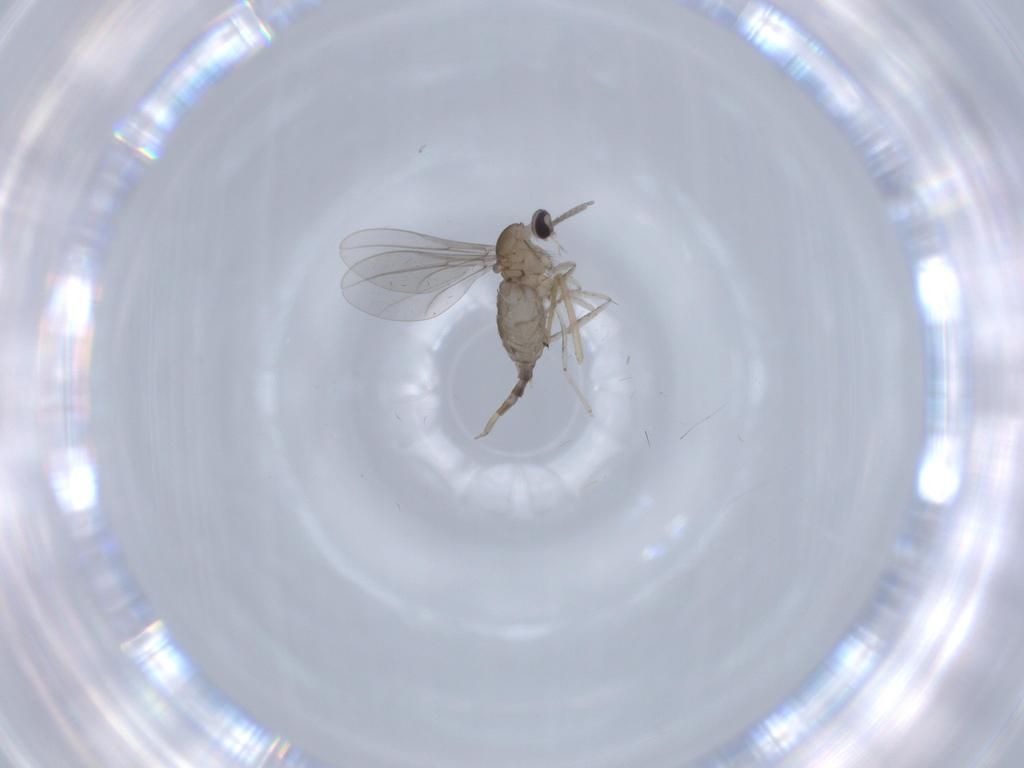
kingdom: Animalia
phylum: Arthropoda
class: Insecta
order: Diptera
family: Cecidomyiidae
